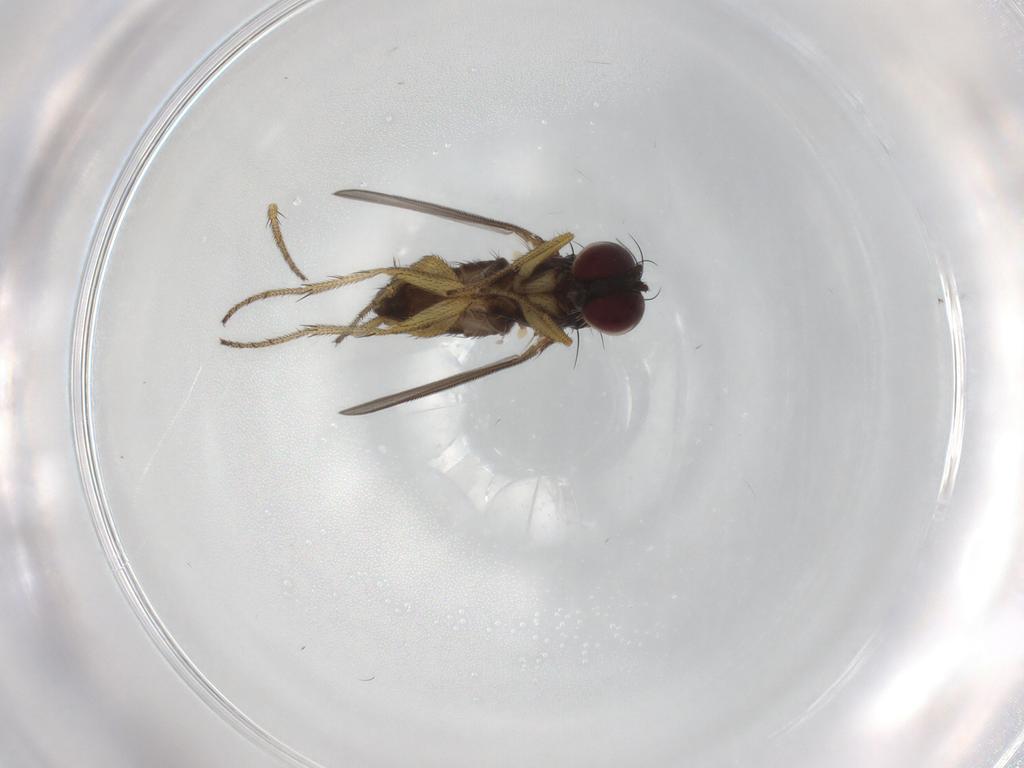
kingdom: Animalia
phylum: Arthropoda
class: Insecta
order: Diptera
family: Dolichopodidae
